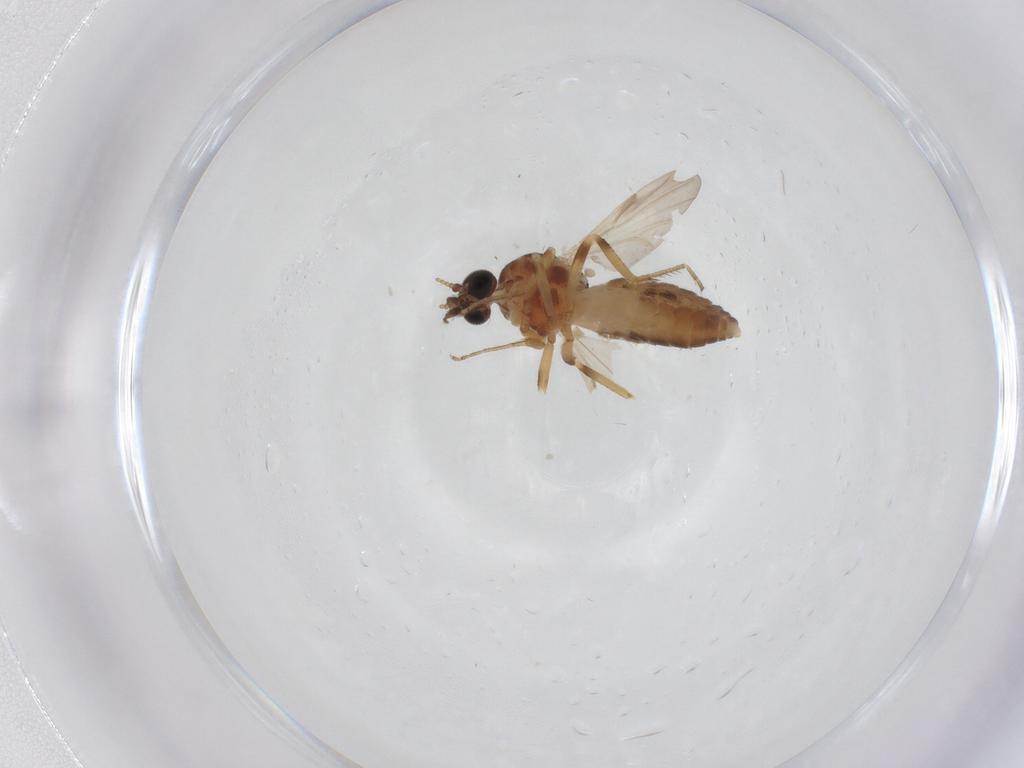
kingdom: Animalia
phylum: Arthropoda
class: Insecta
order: Diptera
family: Ceratopogonidae
